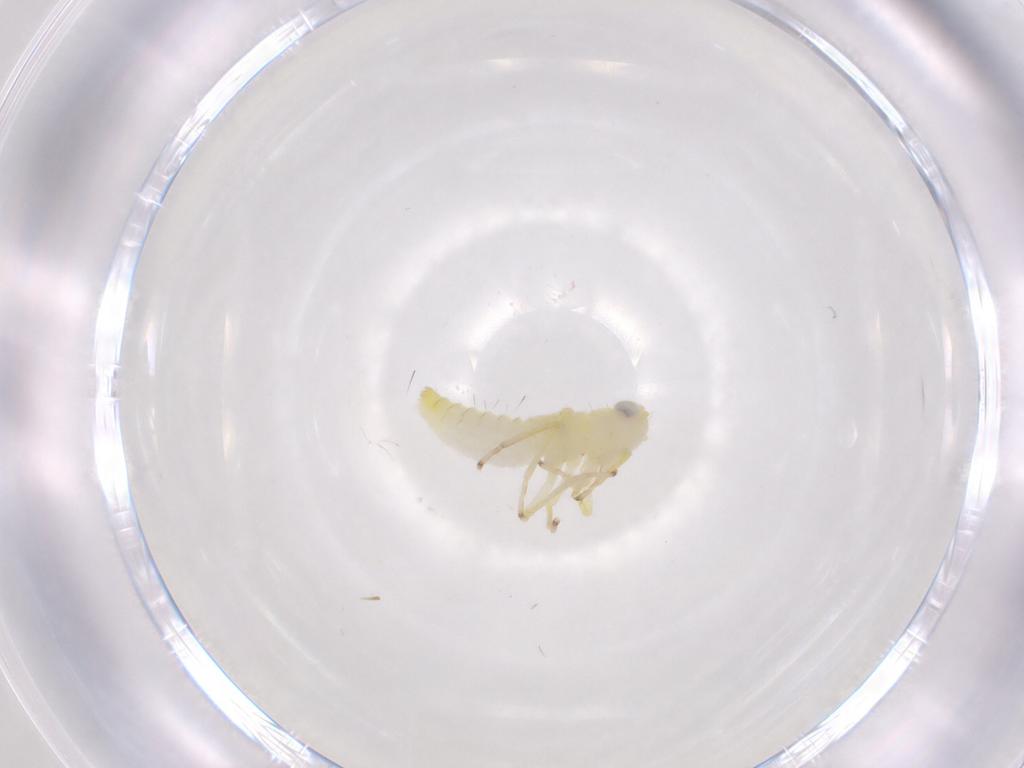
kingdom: Animalia
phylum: Arthropoda
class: Insecta
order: Hemiptera
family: Cicadellidae
